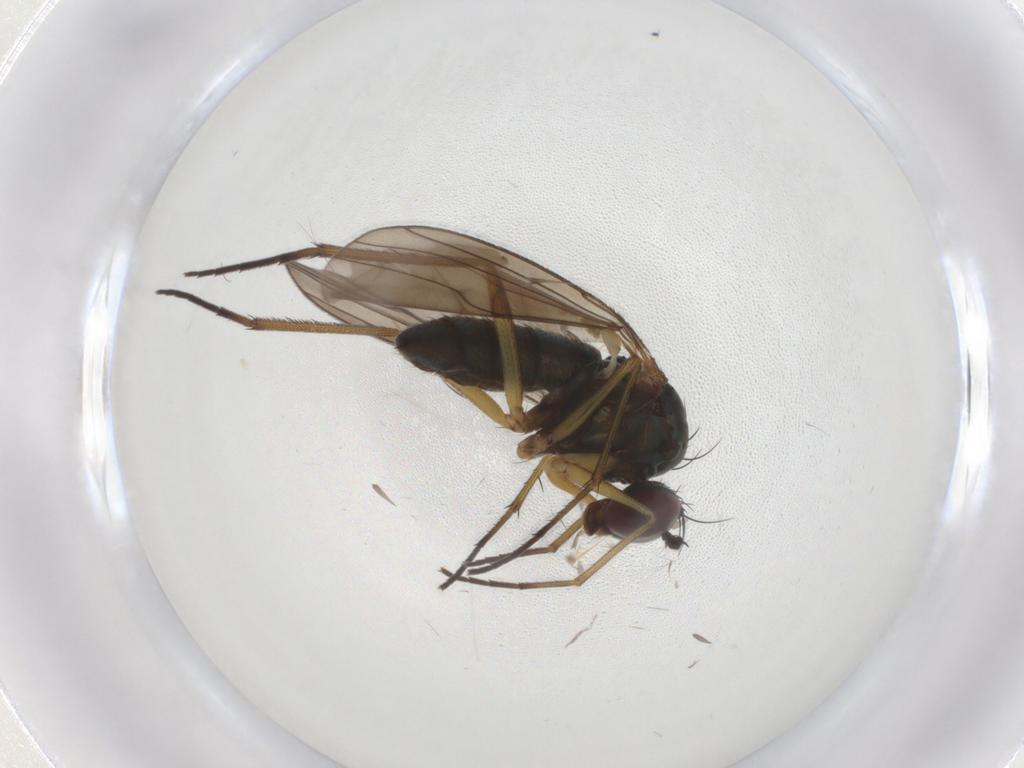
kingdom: Animalia
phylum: Arthropoda
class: Insecta
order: Diptera
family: Dolichopodidae
